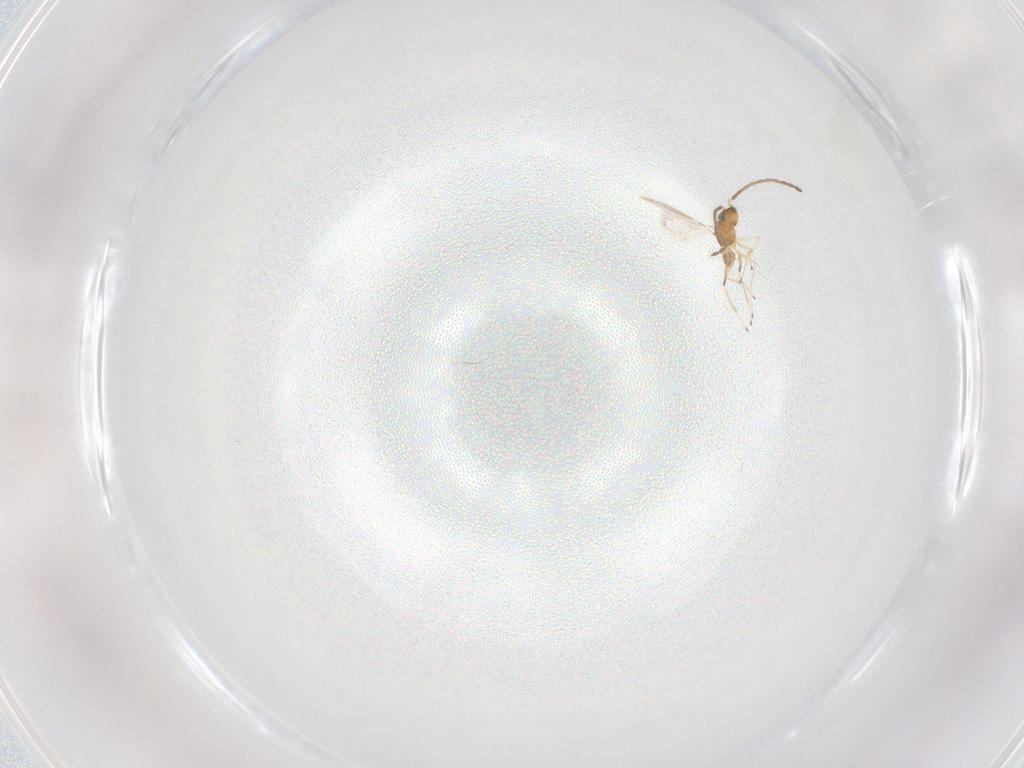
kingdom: Animalia
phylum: Arthropoda
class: Insecta
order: Hymenoptera
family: Mymaridae
